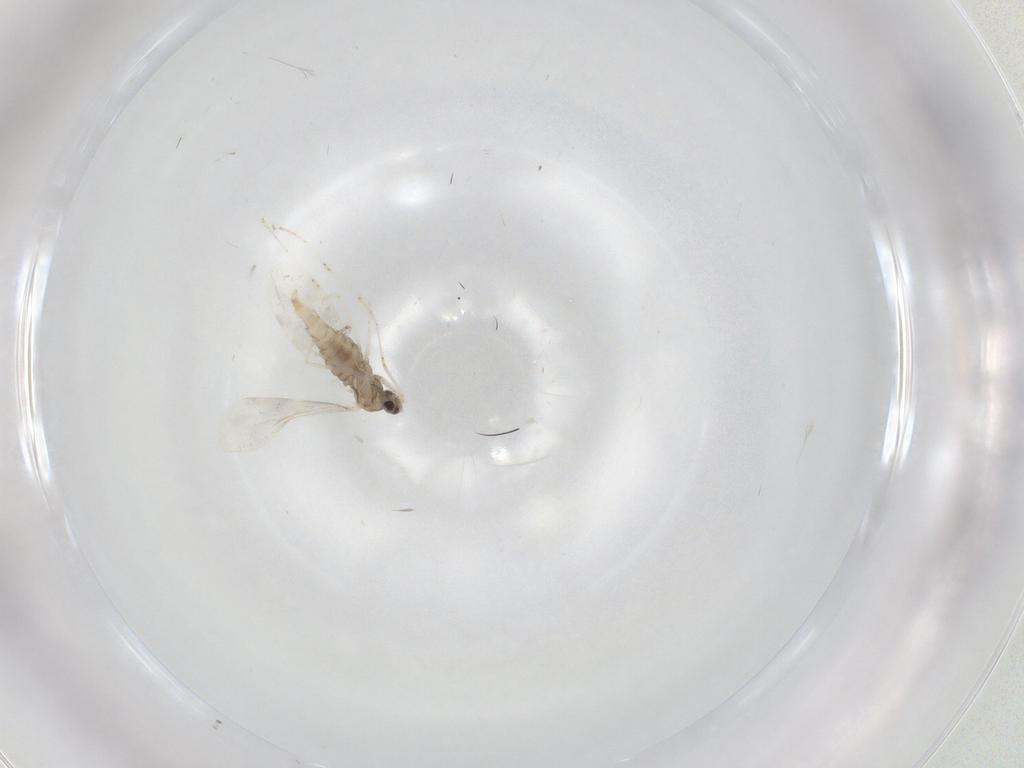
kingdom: Animalia
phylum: Arthropoda
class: Insecta
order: Diptera
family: Cecidomyiidae
